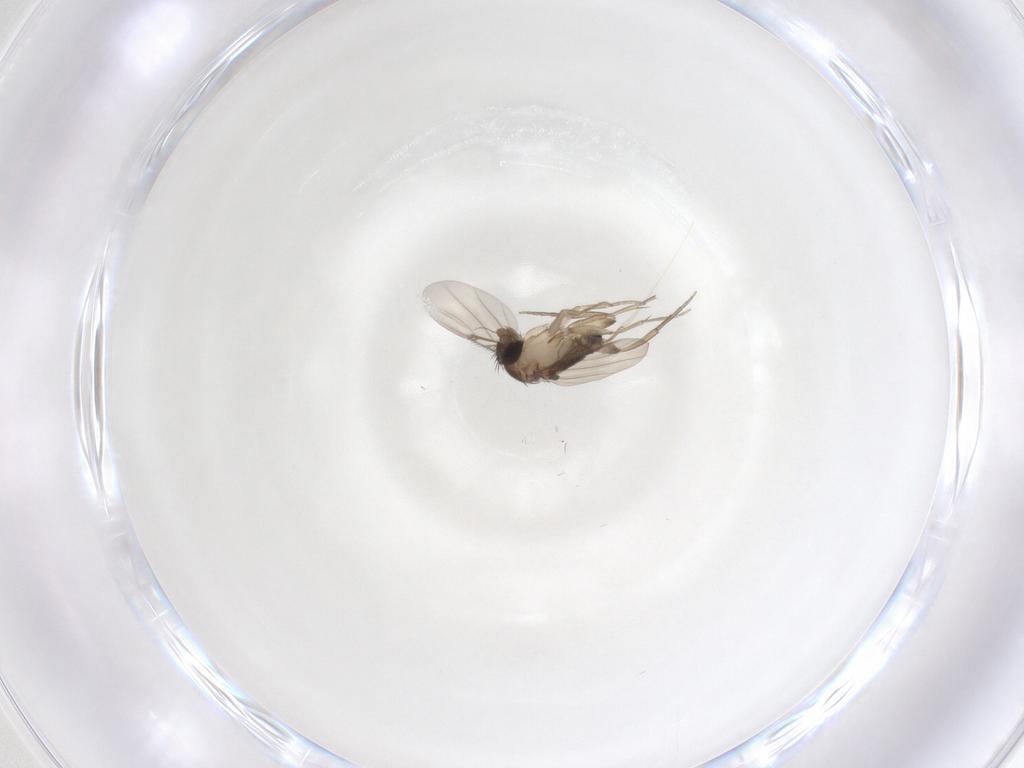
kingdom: Animalia
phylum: Arthropoda
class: Insecta
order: Diptera
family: Phoridae
